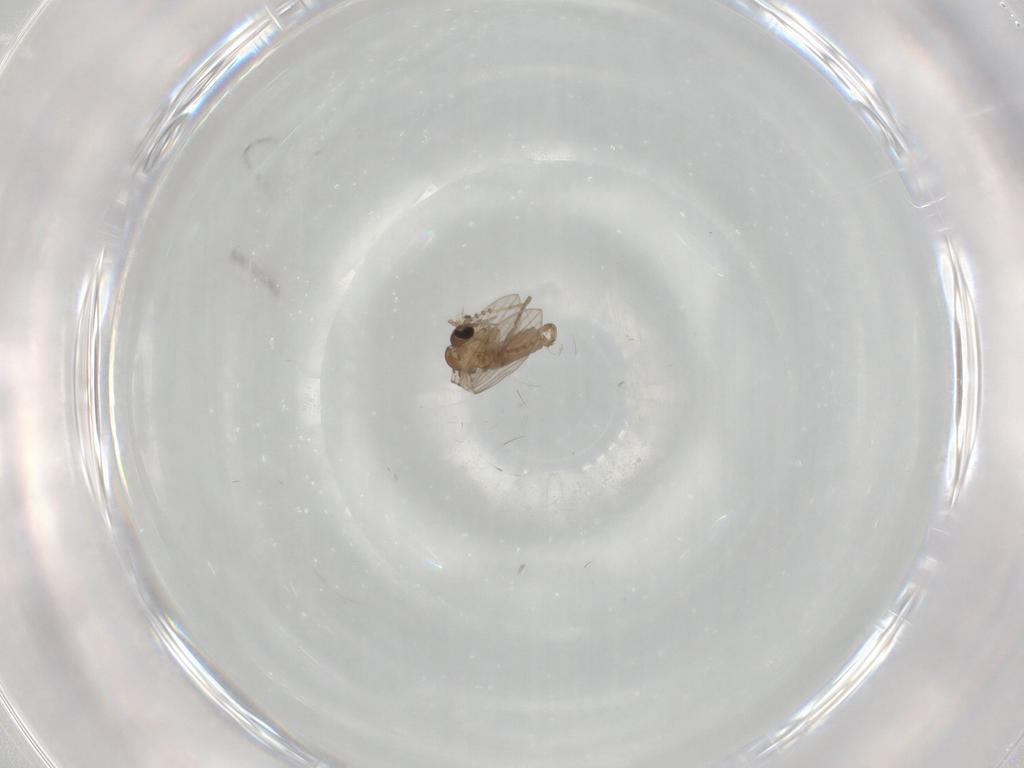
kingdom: Animalia
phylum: Arthropoda
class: Insecta
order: Diptera
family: Psychodidae
